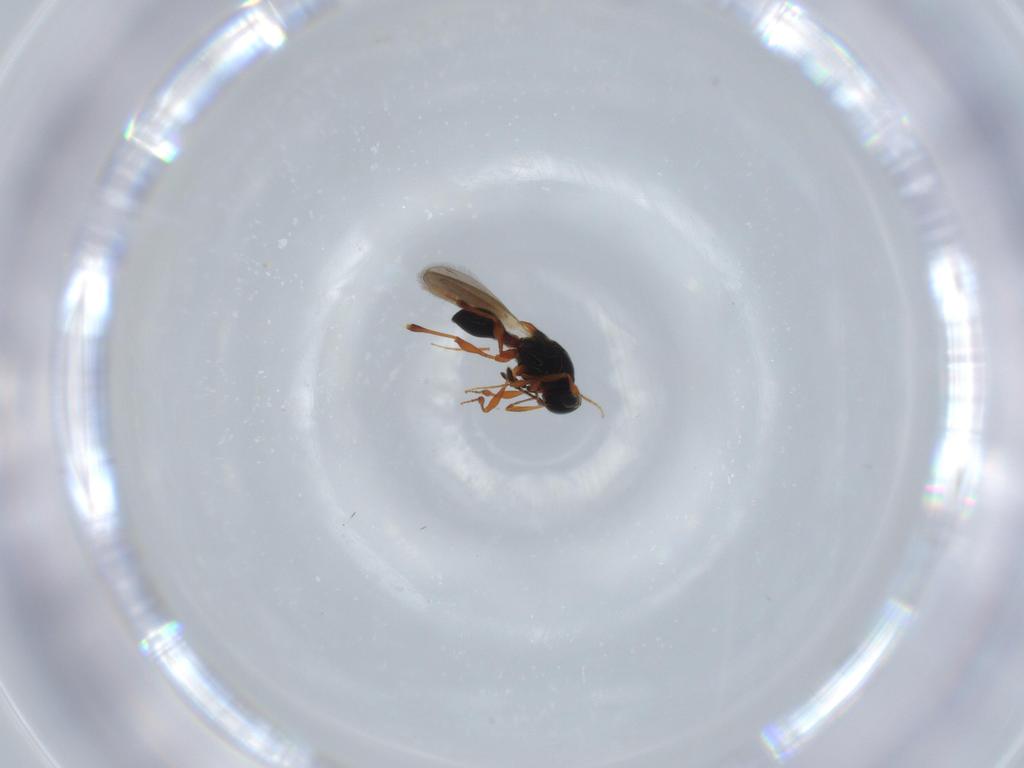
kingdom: Animalia
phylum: Arthropoda
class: Insecta
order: Hymenoptera
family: Platygastridae
